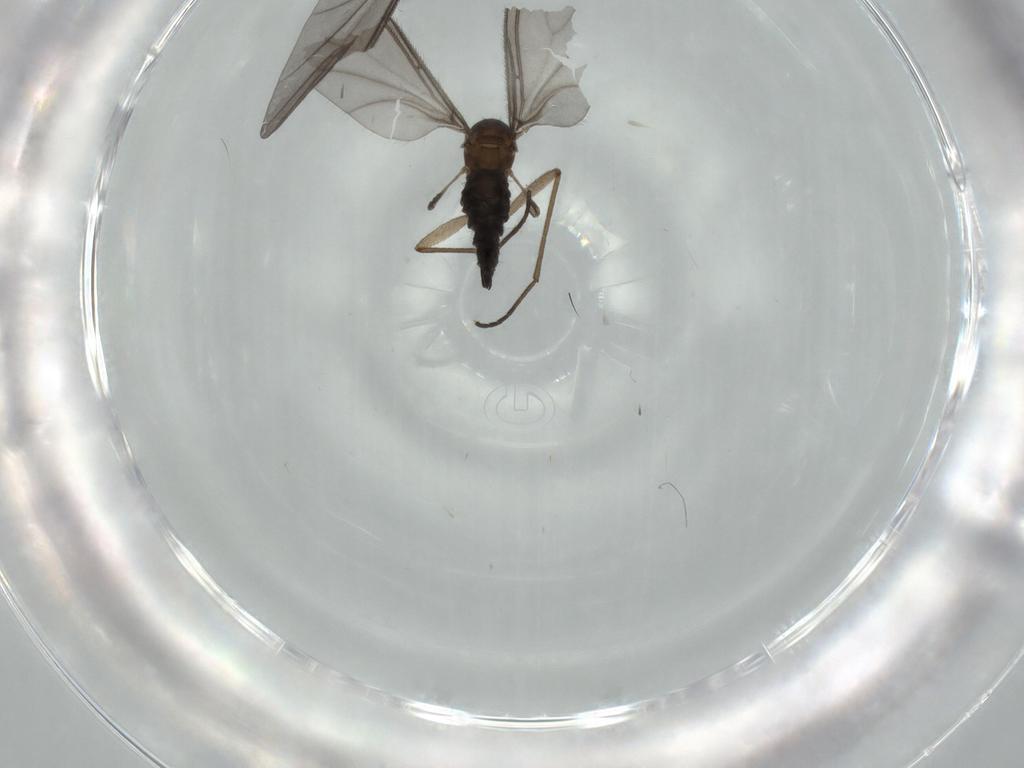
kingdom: Animalia
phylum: Arthropoda
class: Insecta
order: Diptera
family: Sciaridae
